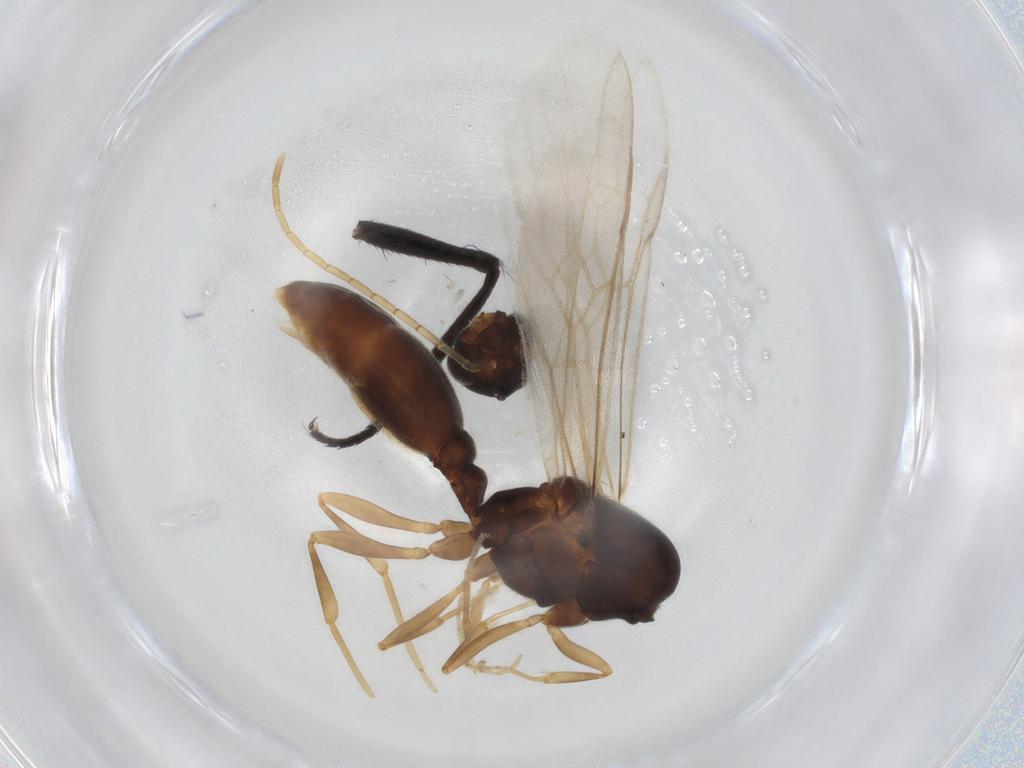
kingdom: Animalia
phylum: Arthropoda
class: Insecta
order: Hymenoptera
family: Formicidae
